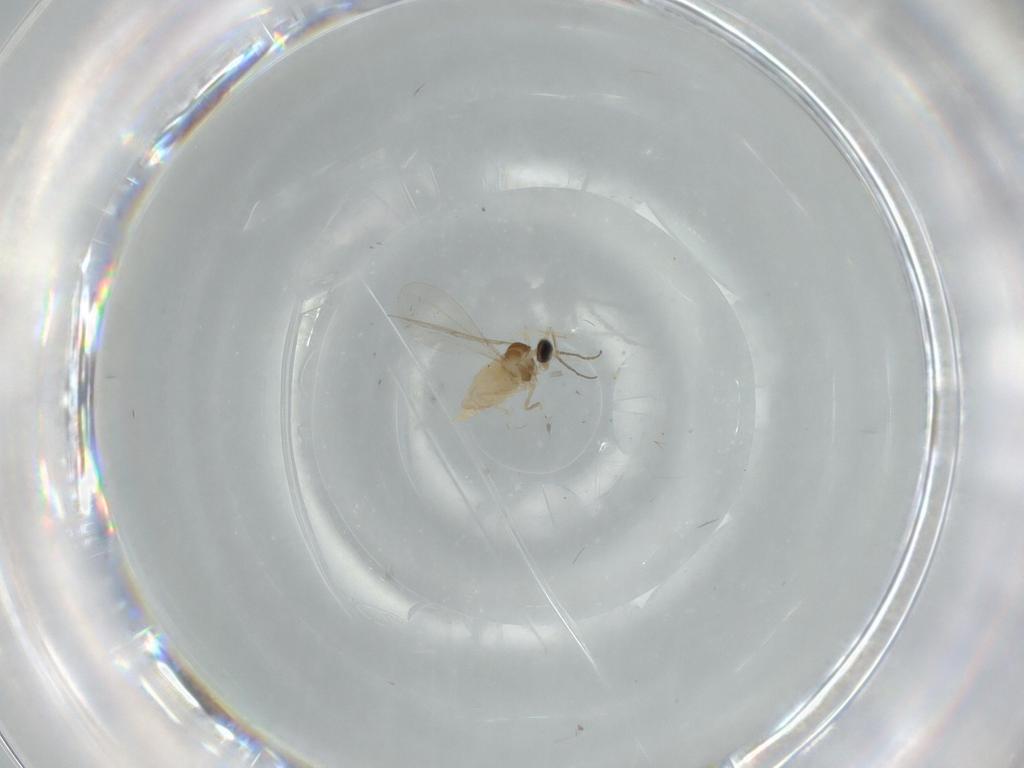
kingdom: Animalia
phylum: Arthropoda
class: Insecta
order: Diptera
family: Cecidomyiidae
